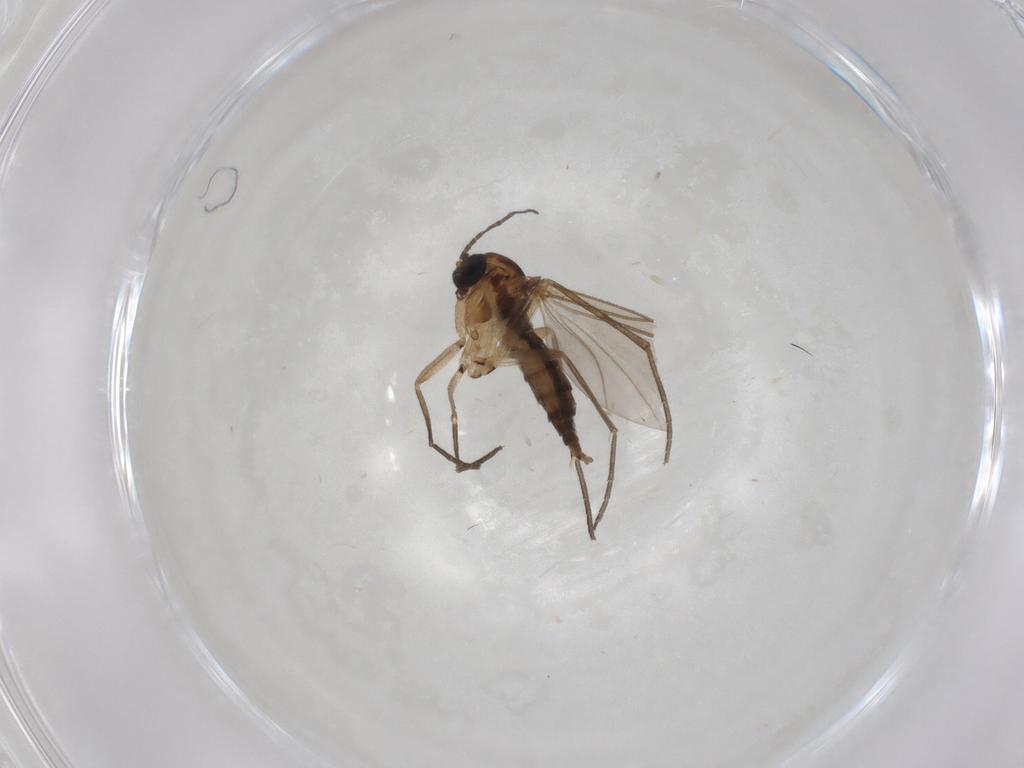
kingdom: Animalia
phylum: Arthropoda
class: Insecta
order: Diptera
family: Sciaridae
